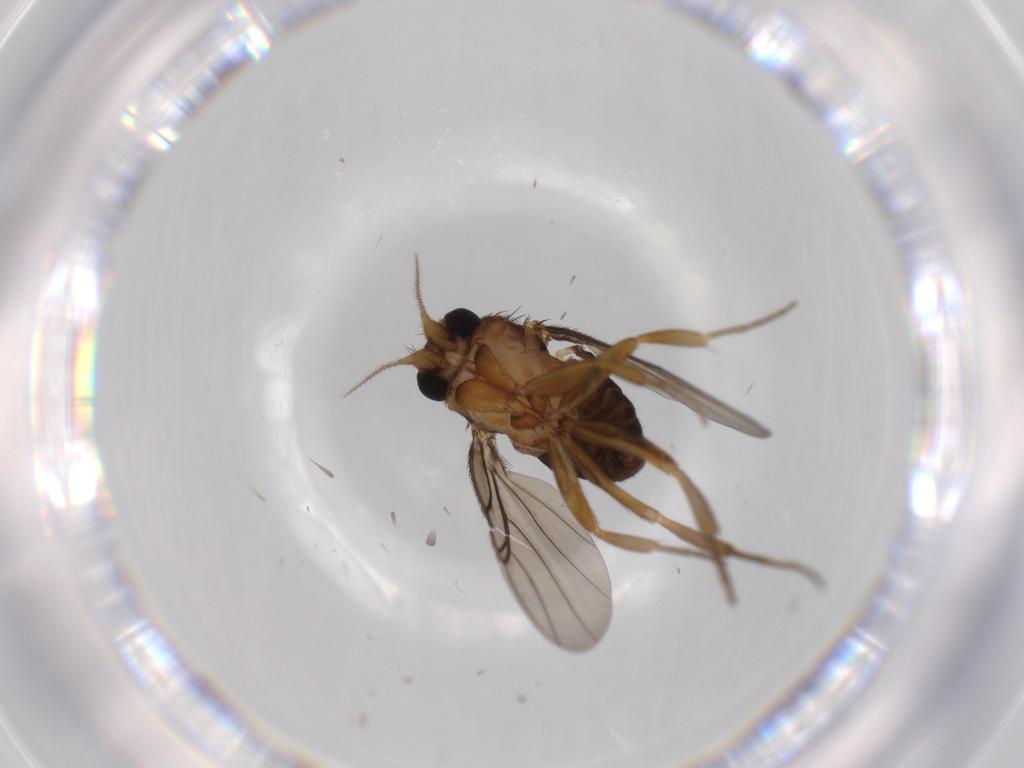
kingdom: Animalia
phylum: Arthropoda
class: Insecta
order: Diptera
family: Phoridae
